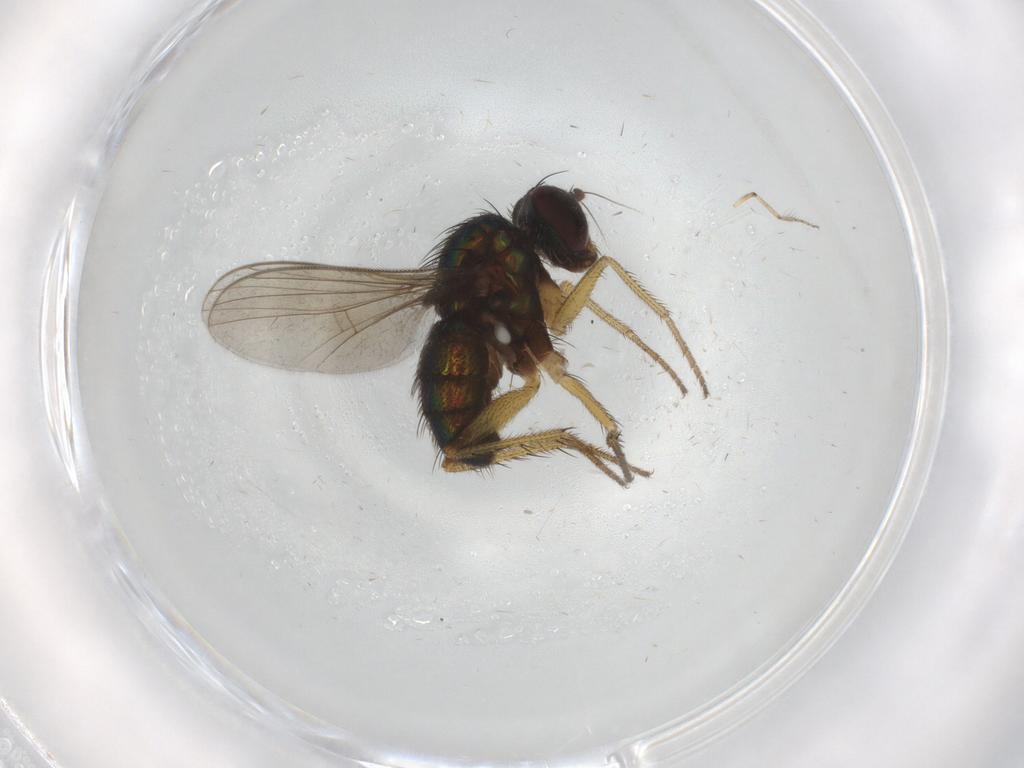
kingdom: Animalia
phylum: Arthropoda
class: Insecta
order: Diptera
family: Dolichopodidae
